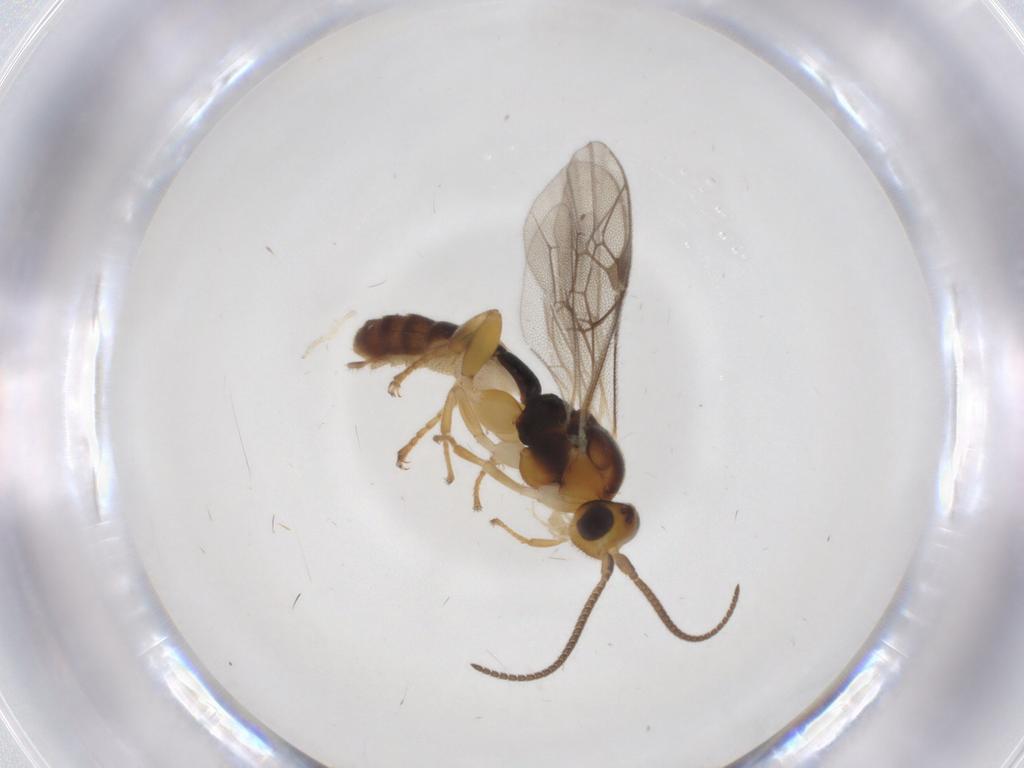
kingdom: Animalia
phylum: Arthropoda
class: Insecta
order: Hymenoptera
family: Ichneumonidae
